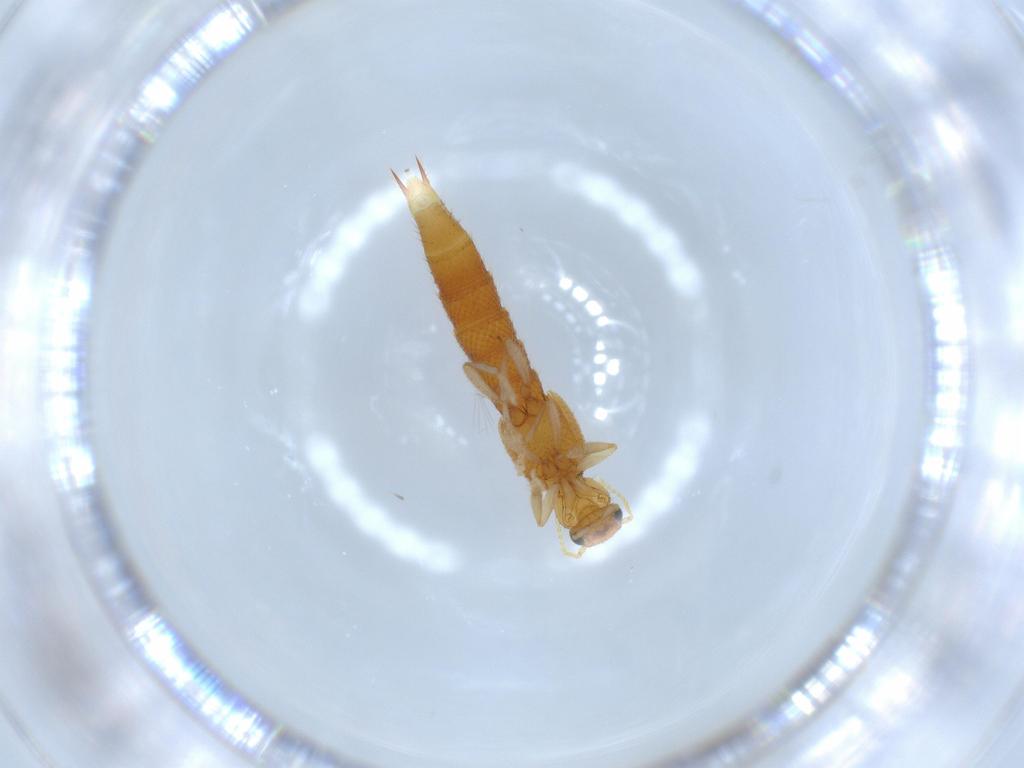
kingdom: Animalia
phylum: Arthropoda
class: Insecta
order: Coleoptera
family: Staphylinidae
